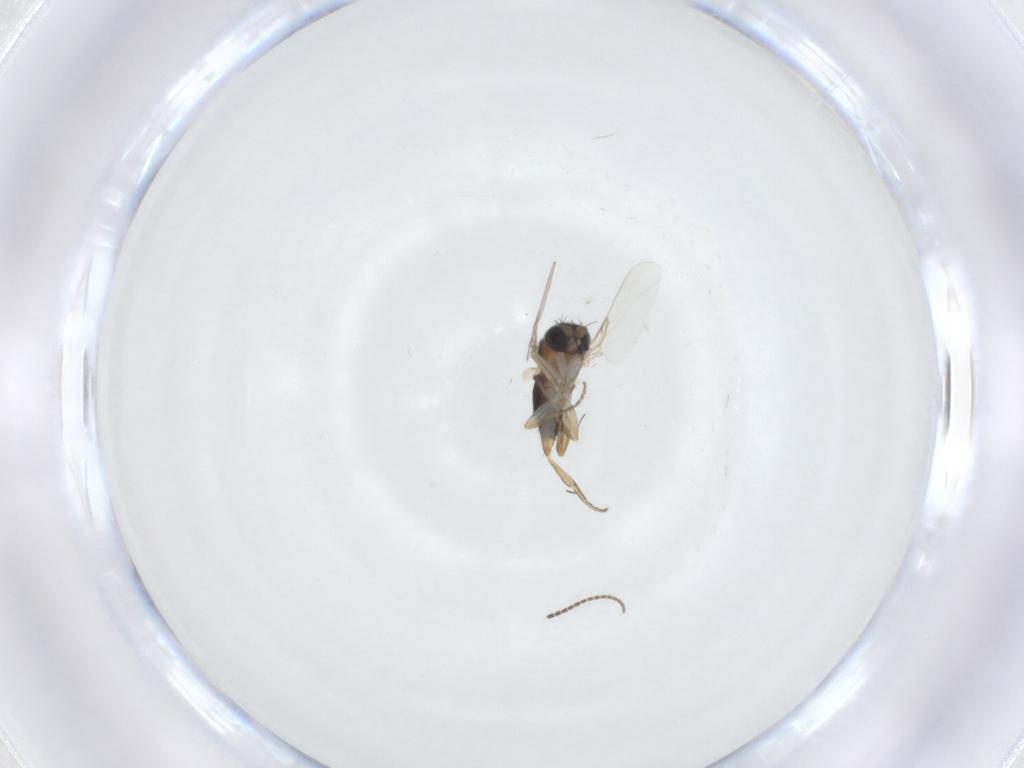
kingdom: Animalia
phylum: Arthropoda
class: Insecta
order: Diptera
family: Phoridae
